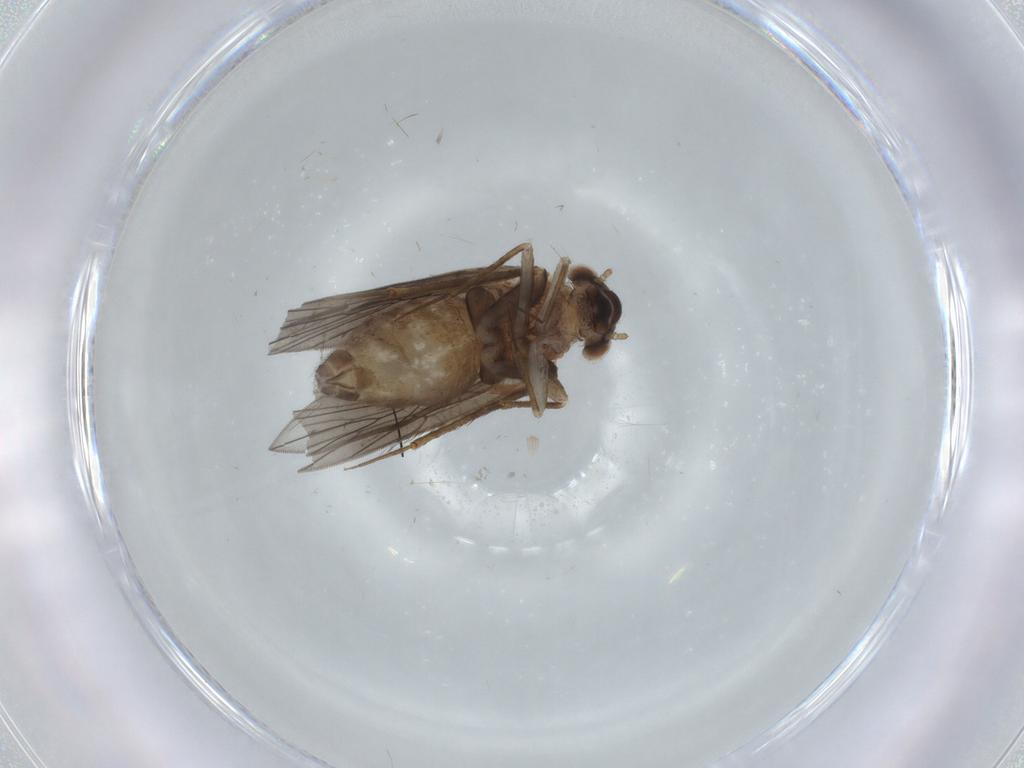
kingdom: Animalia
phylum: Arthropoda
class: Insecta
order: Psocodea
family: Lepidopsocidae
